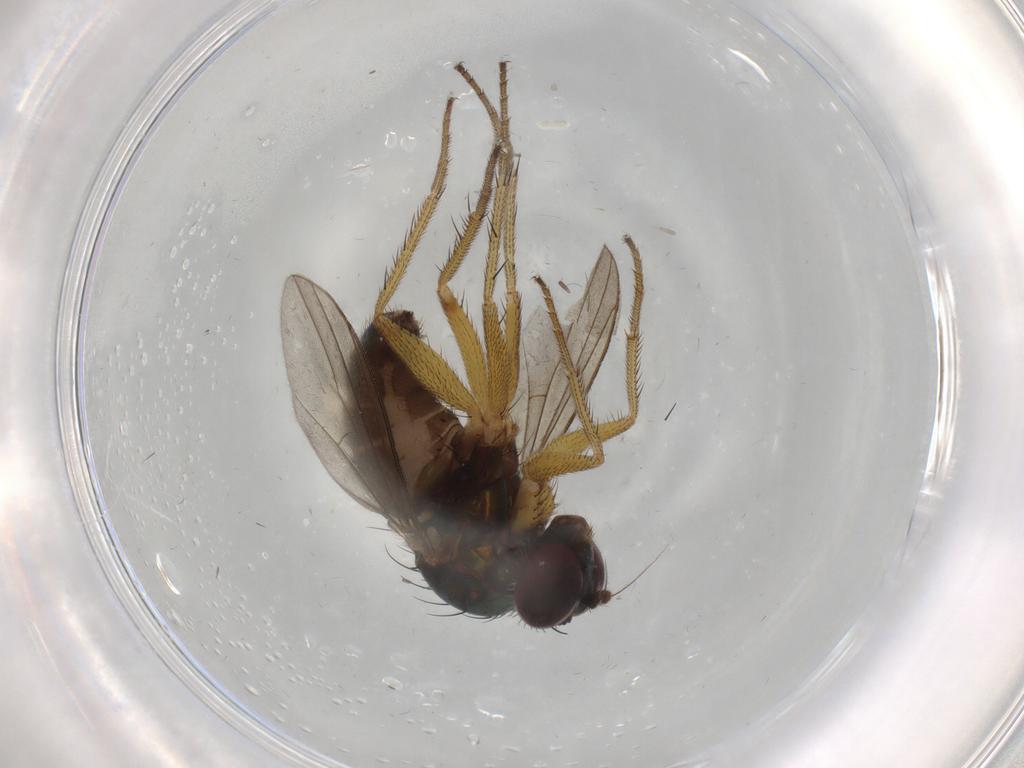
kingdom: Animalia
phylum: Arthropoda
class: Insecta
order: Diptera
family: Dolichopodidae
